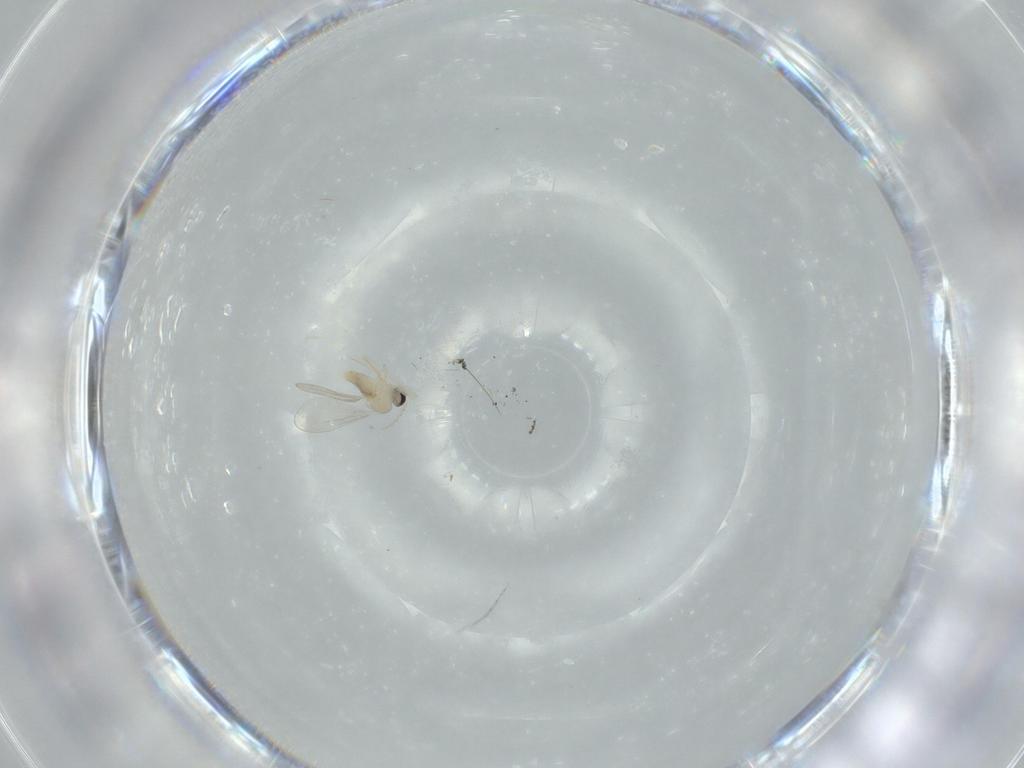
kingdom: Animalia
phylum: Arthropoda
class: Insecta
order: Diptera
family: Cecidomyiidae
